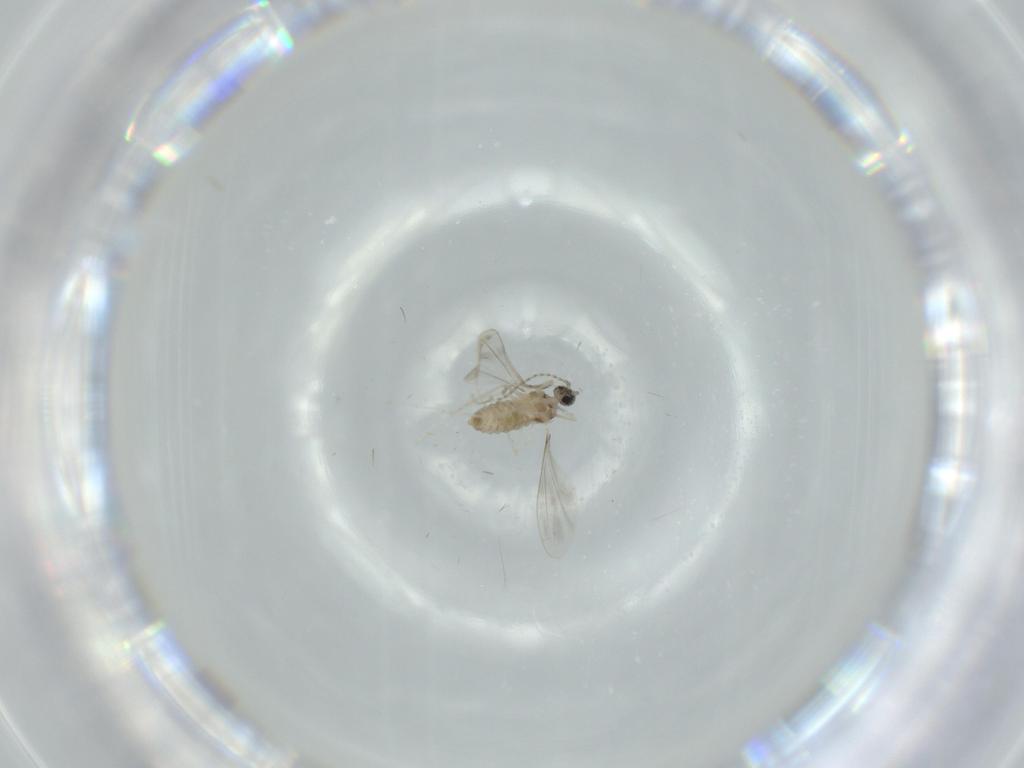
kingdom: Animalia
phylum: Arthropoda
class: Insecta
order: Diptera
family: Cecidomyiidae
